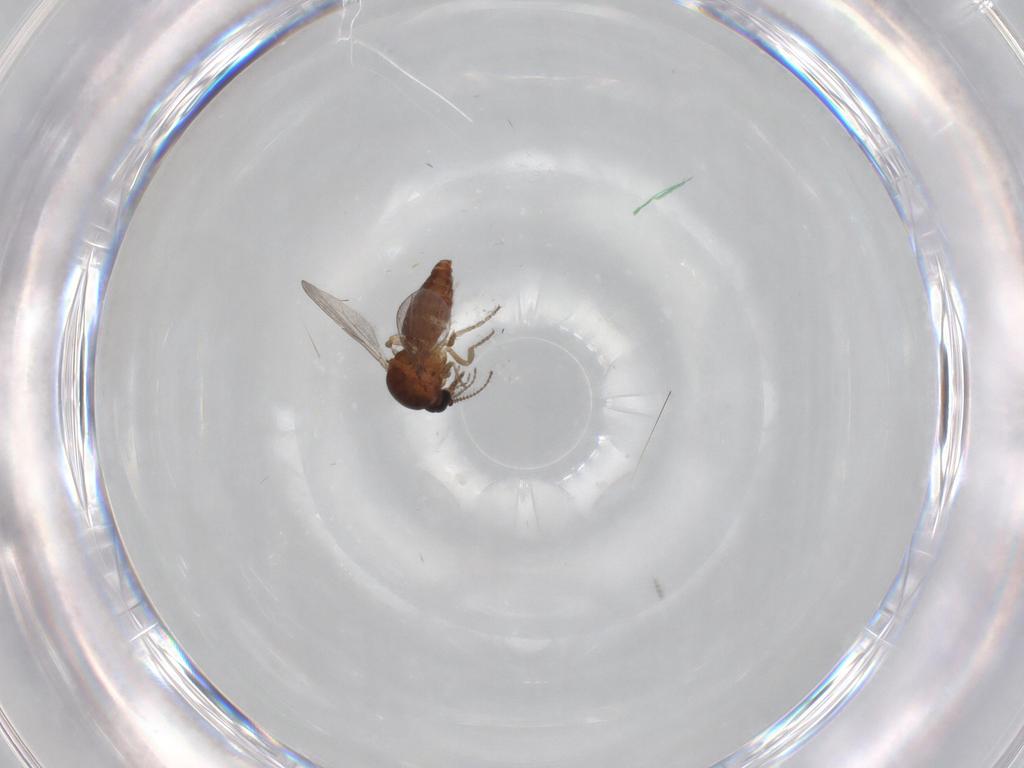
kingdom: Animalia
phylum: Arthropoda
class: Insecta
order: Diptera
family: Ceratopogonidae
